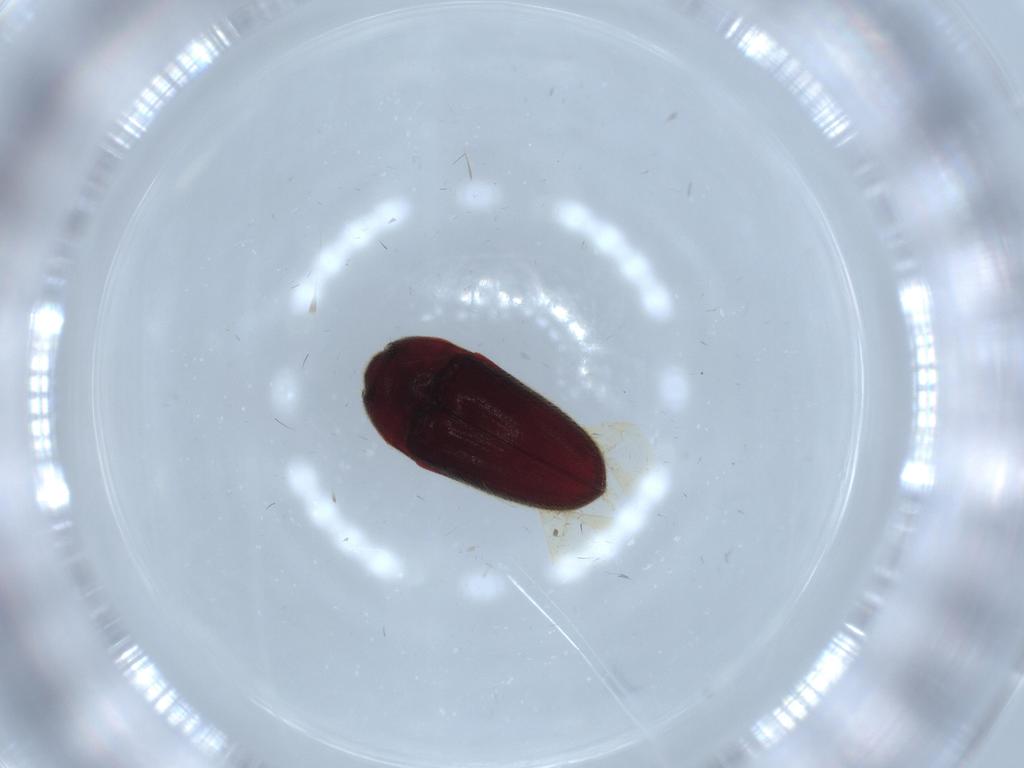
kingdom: Animalia
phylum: Arthropoda
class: Insecta
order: Coleoptera
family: Throscidae
